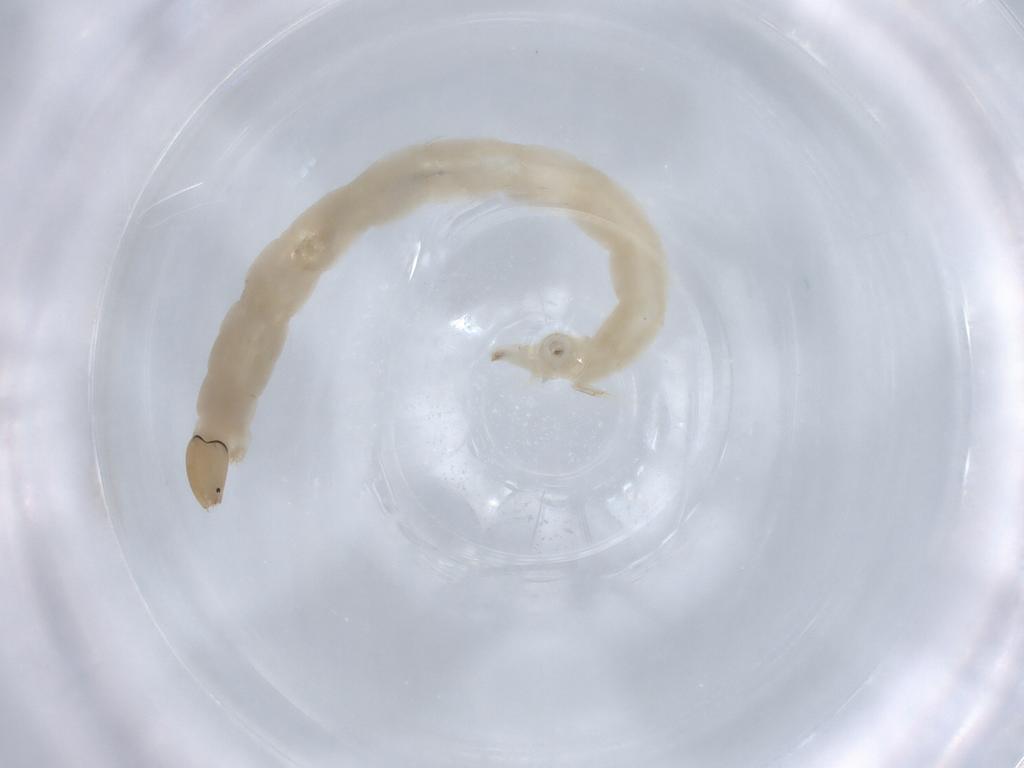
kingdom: Animalia
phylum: Arthropoda
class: Insecta
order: Diptera
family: Chironomidae
